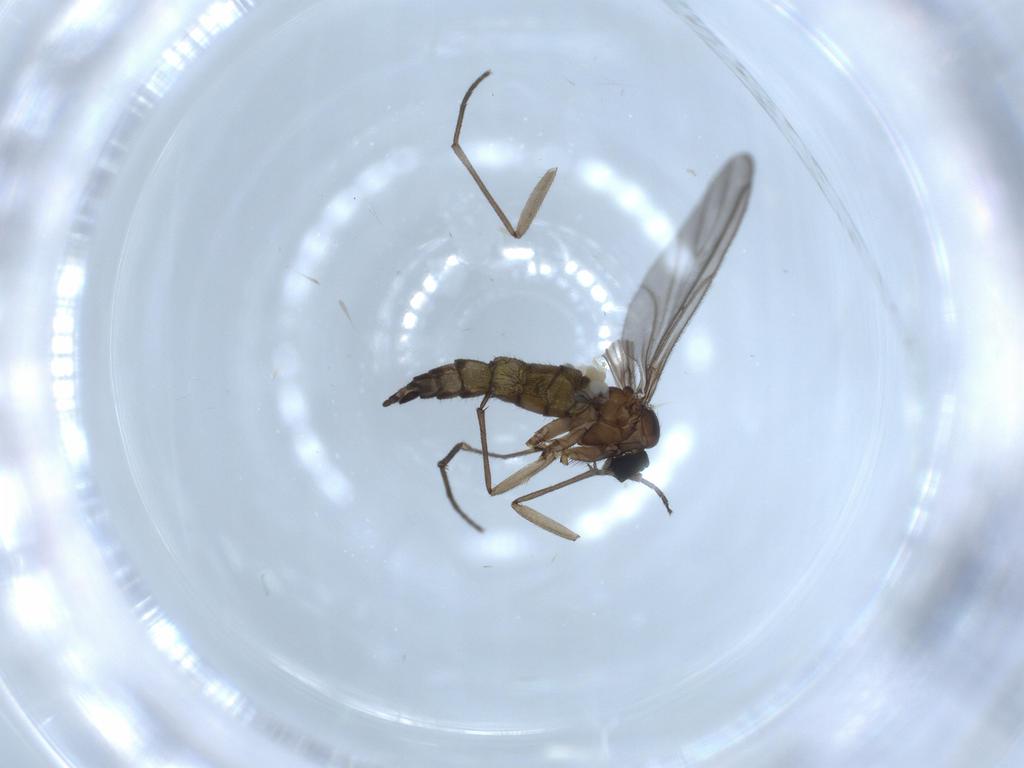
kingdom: Animalia
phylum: Arthropoda
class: Insecta
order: Diptera
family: Sciaridae
